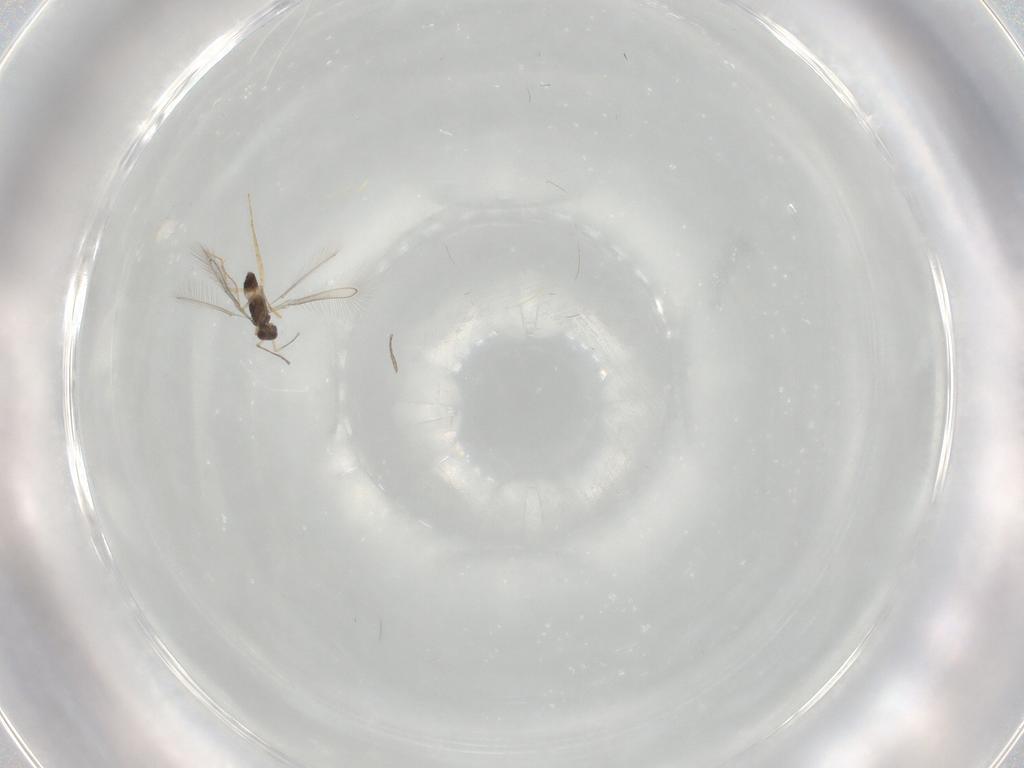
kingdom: Animalia
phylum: Arthropoda
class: Insecta
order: Hymenoptera
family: Mymaridae
